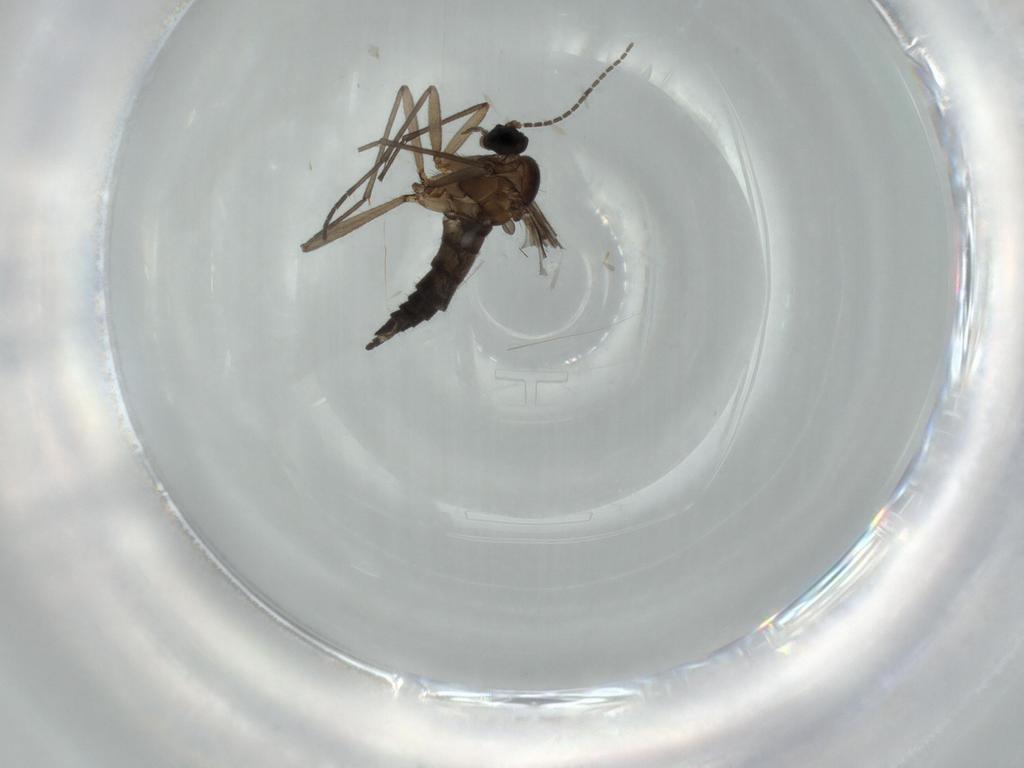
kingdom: Animalia
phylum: Arthropoda
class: Insecta
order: Diptera
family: Sciaridae
